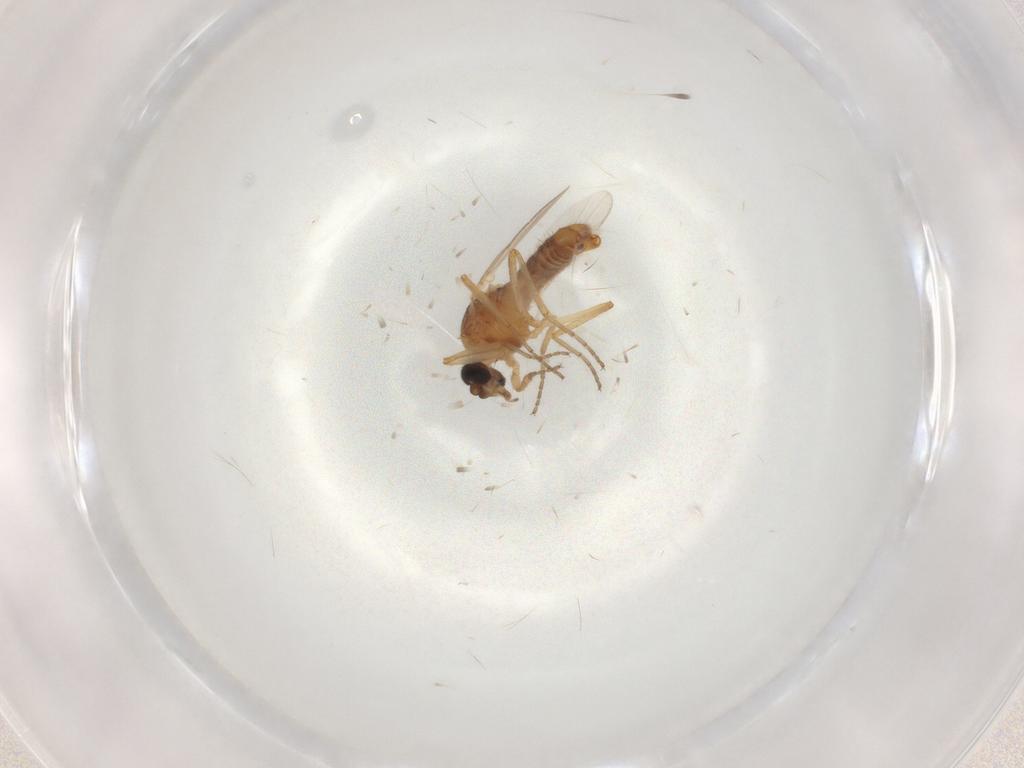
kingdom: Animalia
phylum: Arthropoda
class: Insecta
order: Diptera
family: Ceratopogonidae
